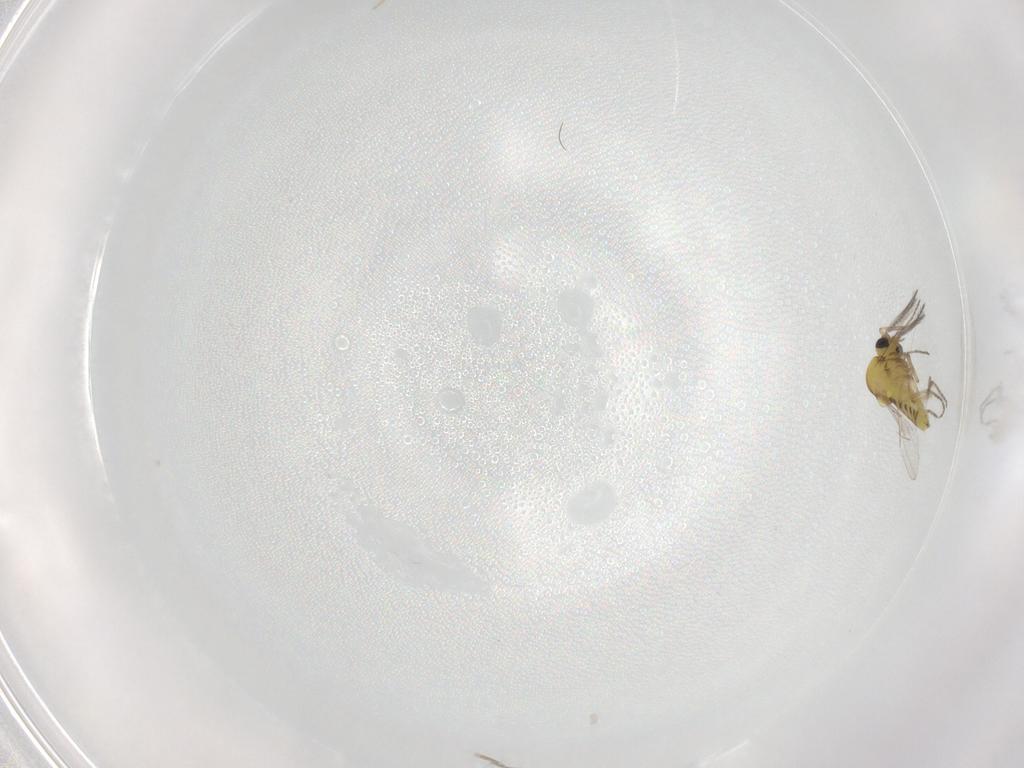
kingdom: Animalia
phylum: Arthropoda
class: Insecta
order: Diptera
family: Ceratopogonidae
